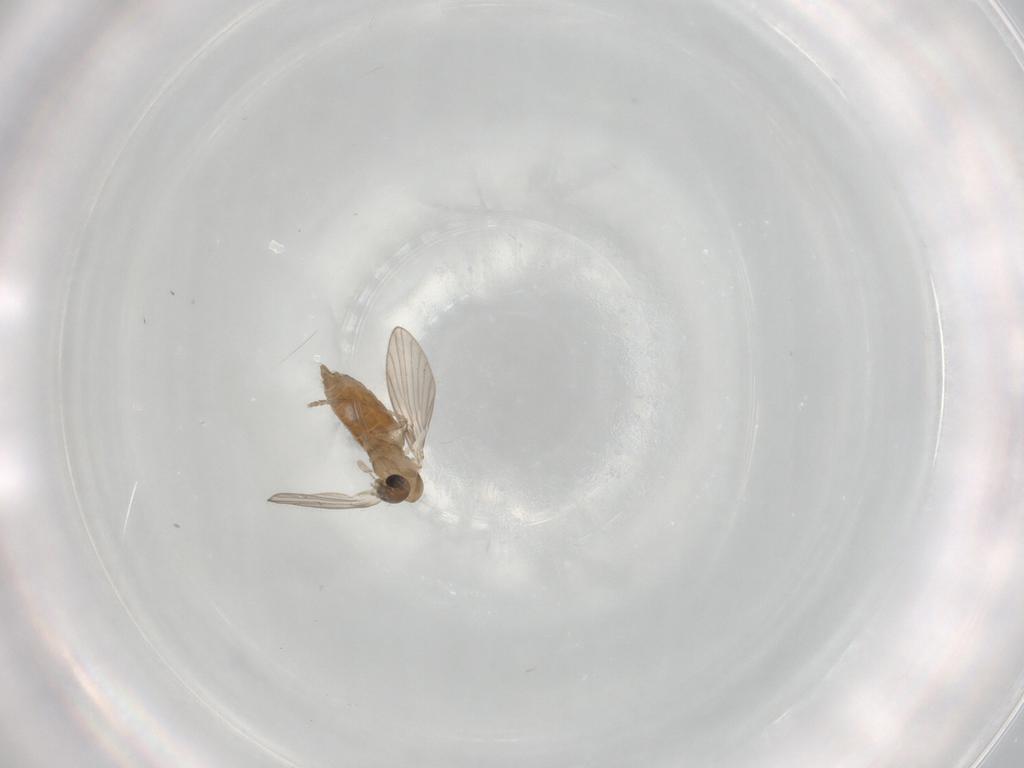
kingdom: Animalia
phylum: Arthropoda
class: Insecta
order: Diptera
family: Psychodidae
